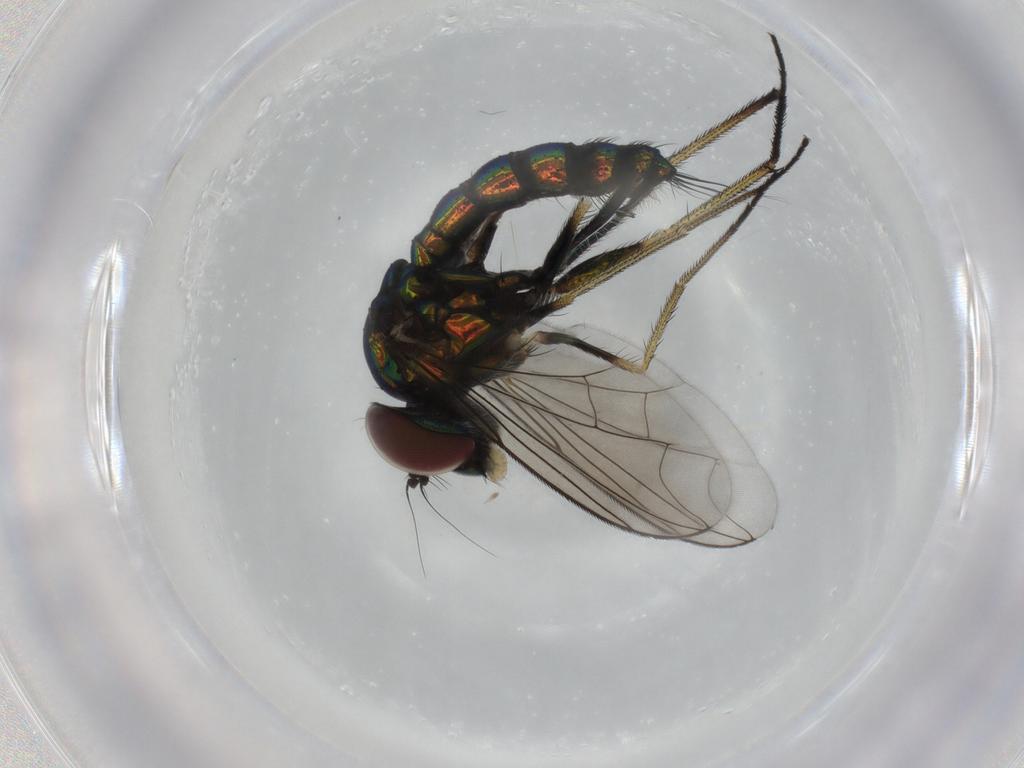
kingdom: Animalia
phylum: Arthropoda
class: Insecta
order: Diptera
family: Dolichopodidae
